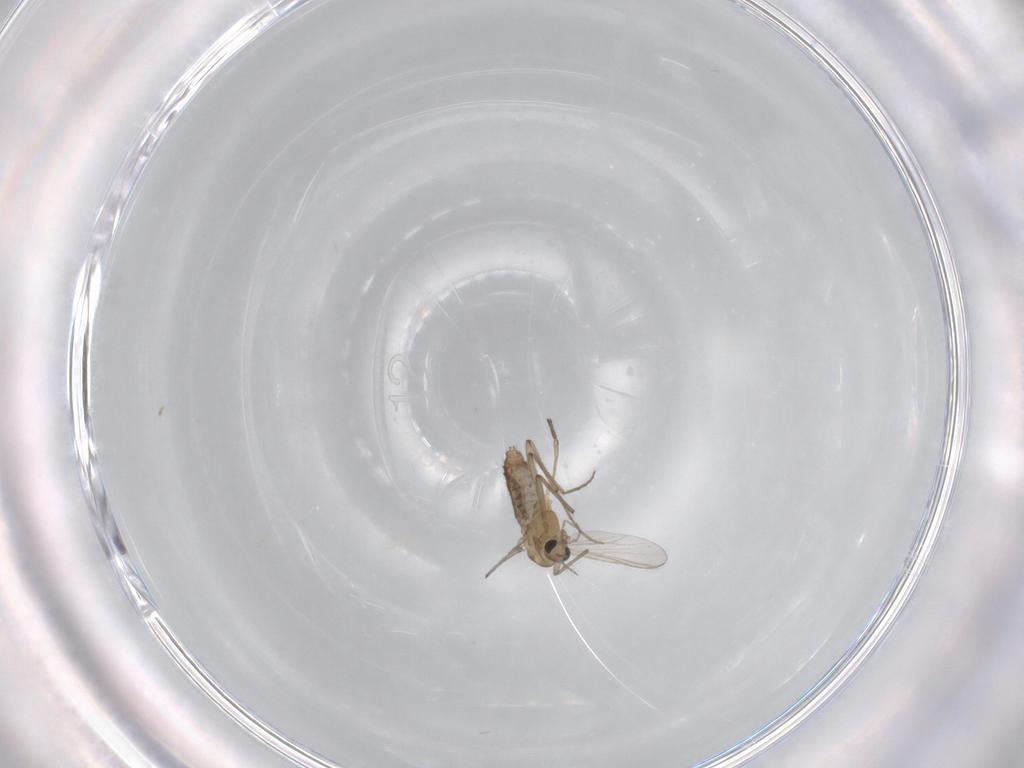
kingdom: Animalia
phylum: Arthropoda
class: Insecta
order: Diptera
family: Chironomidae
